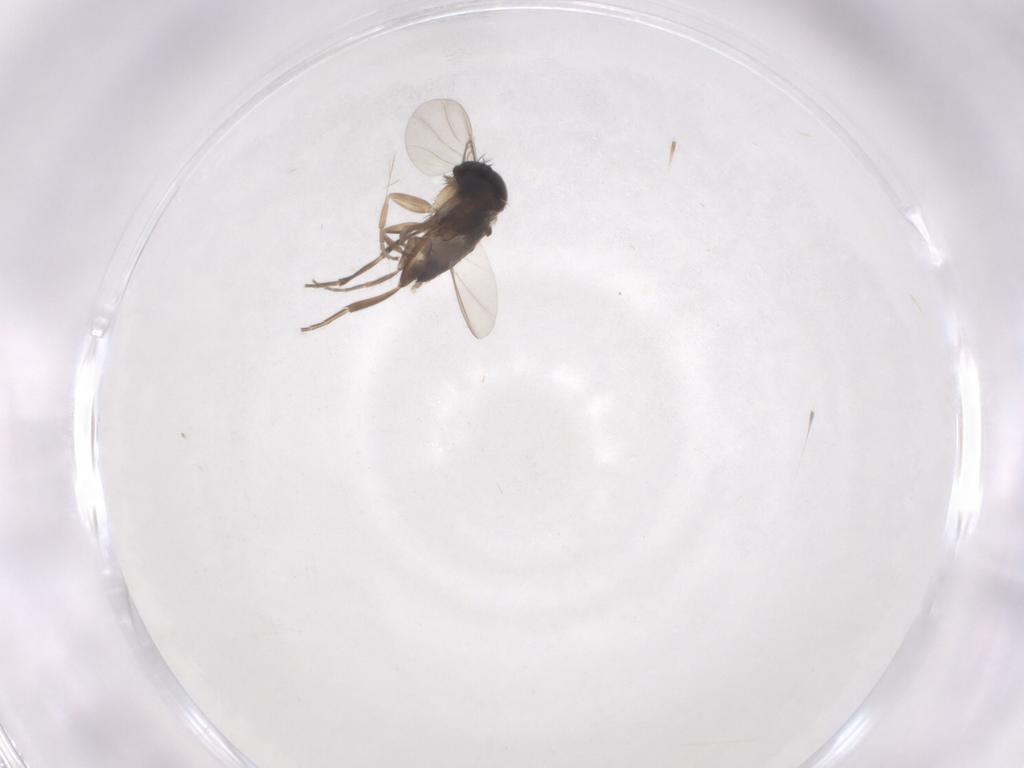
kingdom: Animalia
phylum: Arthropoda
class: Insecta
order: Diptera
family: Phoridae
